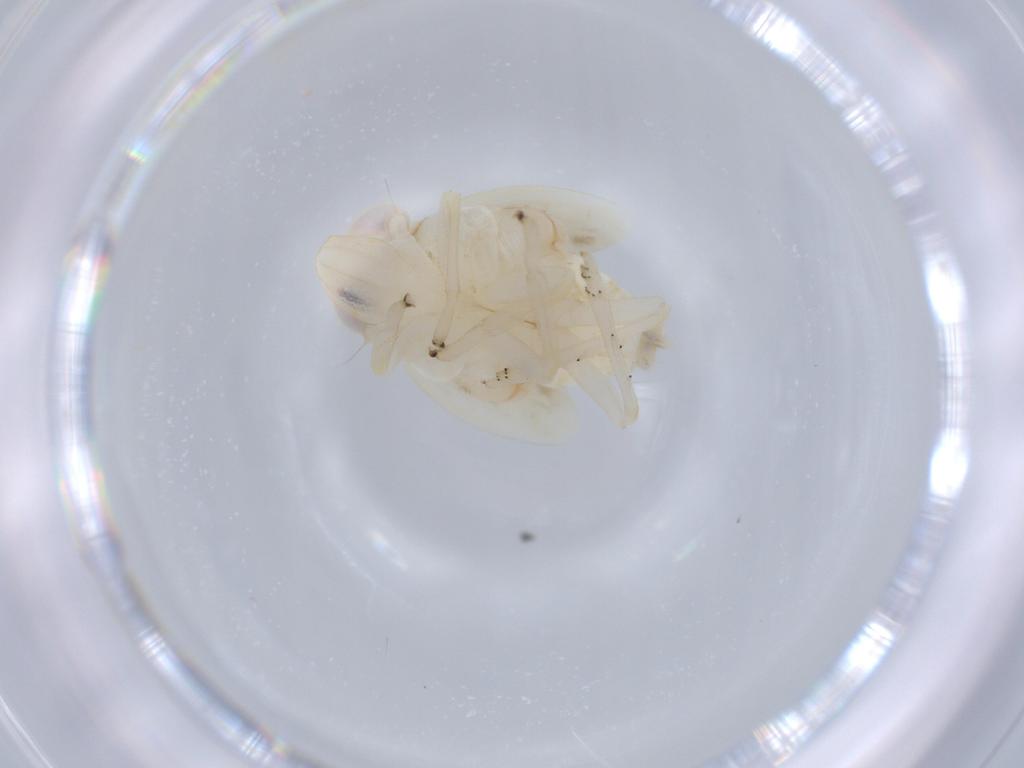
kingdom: Animalia
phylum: Arthropoda
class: Insecta
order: Hemiptera
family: Nogodinidae
